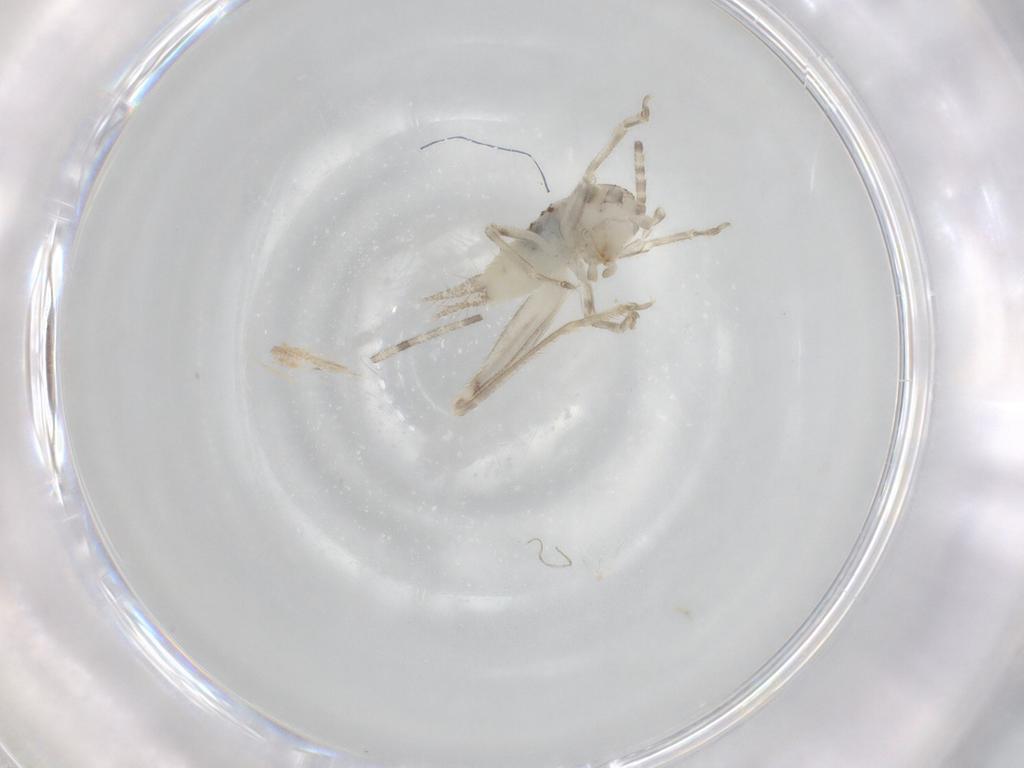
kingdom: Animalia
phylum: Arthropoda
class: Insecta
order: Orthoptera
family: Trigonidiidae
